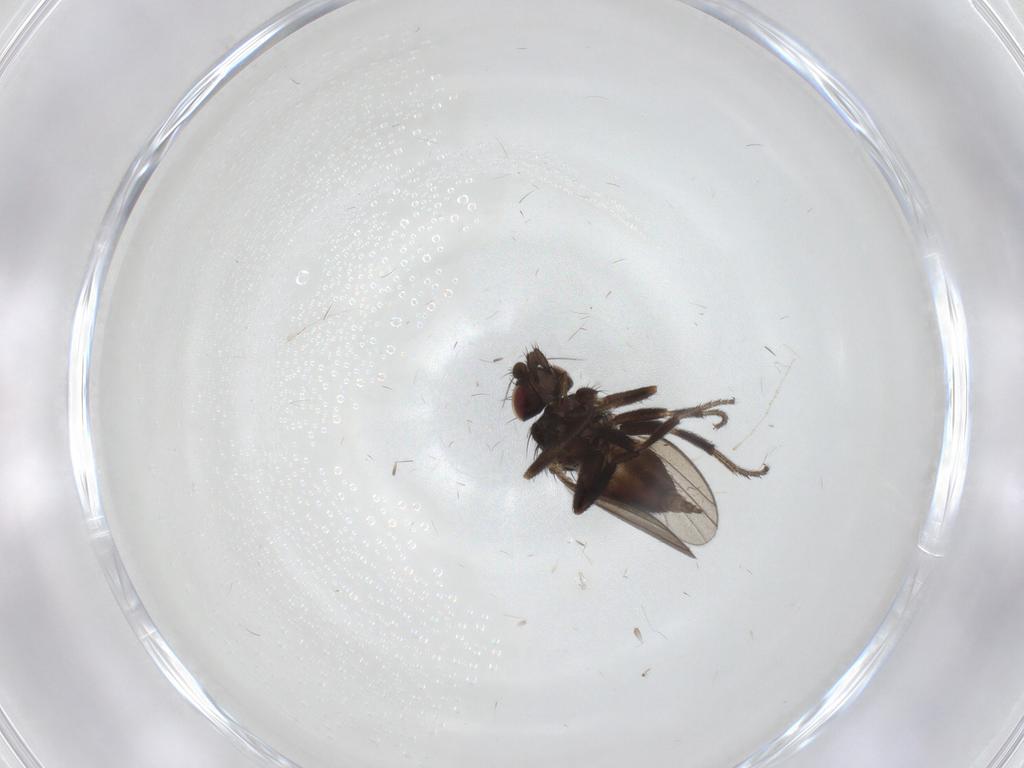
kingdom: Animalia
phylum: Arthropoda
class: Insecta
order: Diptera
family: Milichiidae
